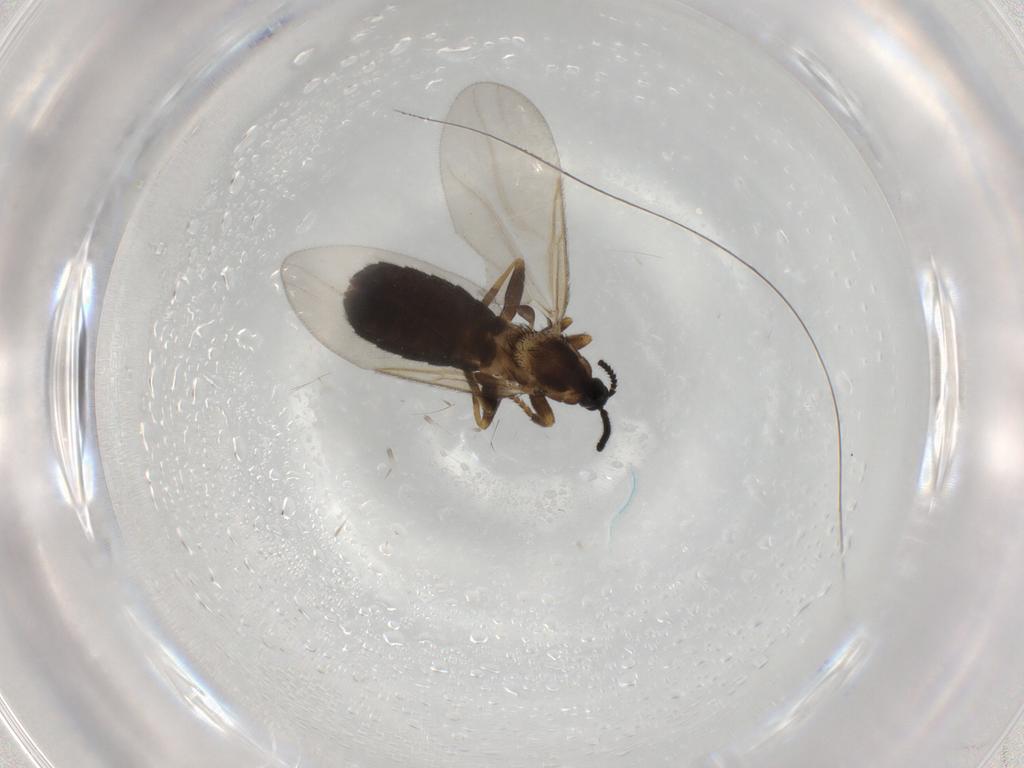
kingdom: Animalia
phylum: Arthropoda
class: Insecta
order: Diptera
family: Scatopsidae
